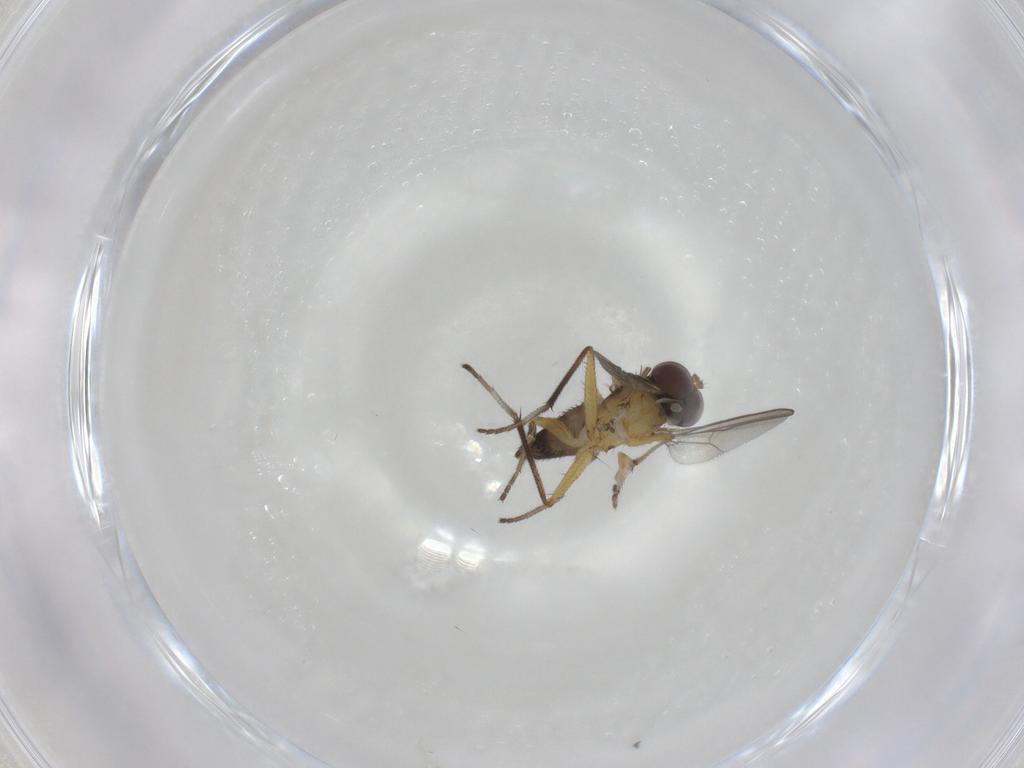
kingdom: Animalia
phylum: Arthropoda
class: Insecta
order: Diptera
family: Dolichopodidae
